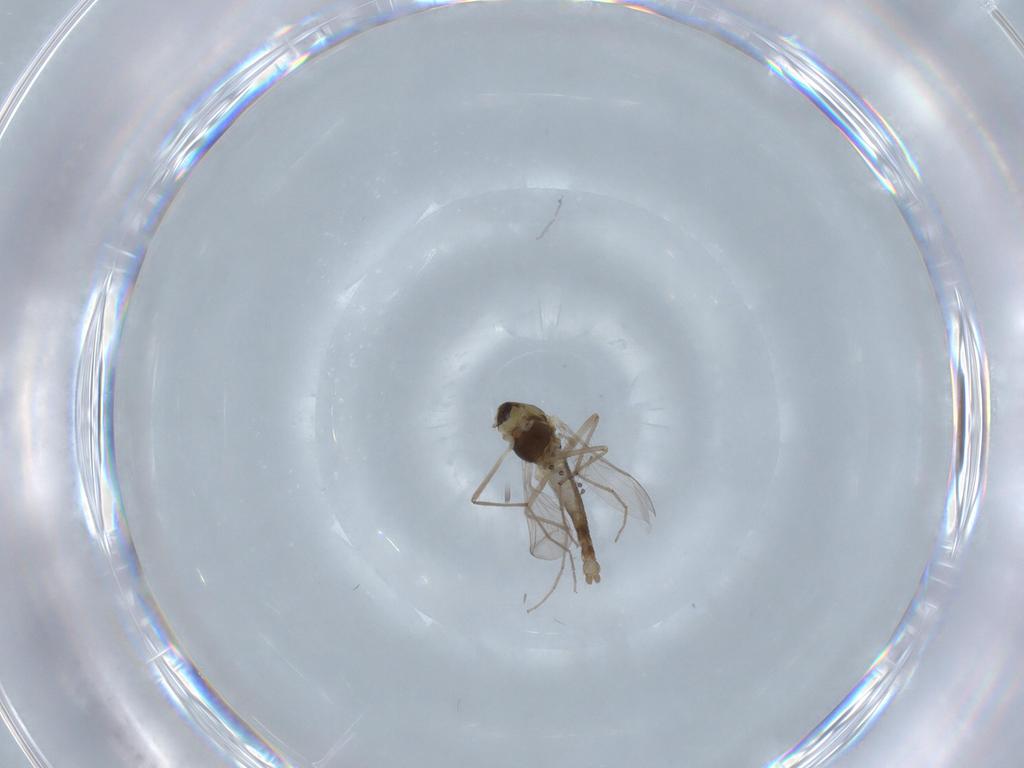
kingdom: Animalia
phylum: Arthropoda
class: Insecta
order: Diptera
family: Chironomidae
